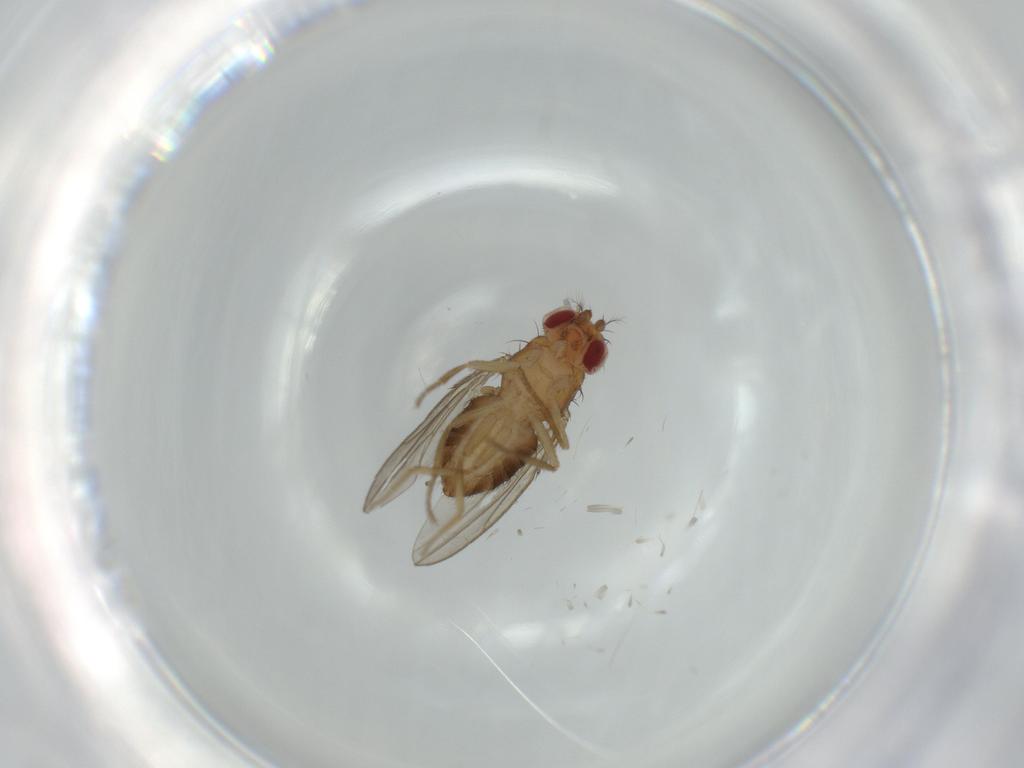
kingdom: Animalia
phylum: Arthropoda
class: Insecta
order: Diptera
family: Drosophilidae
